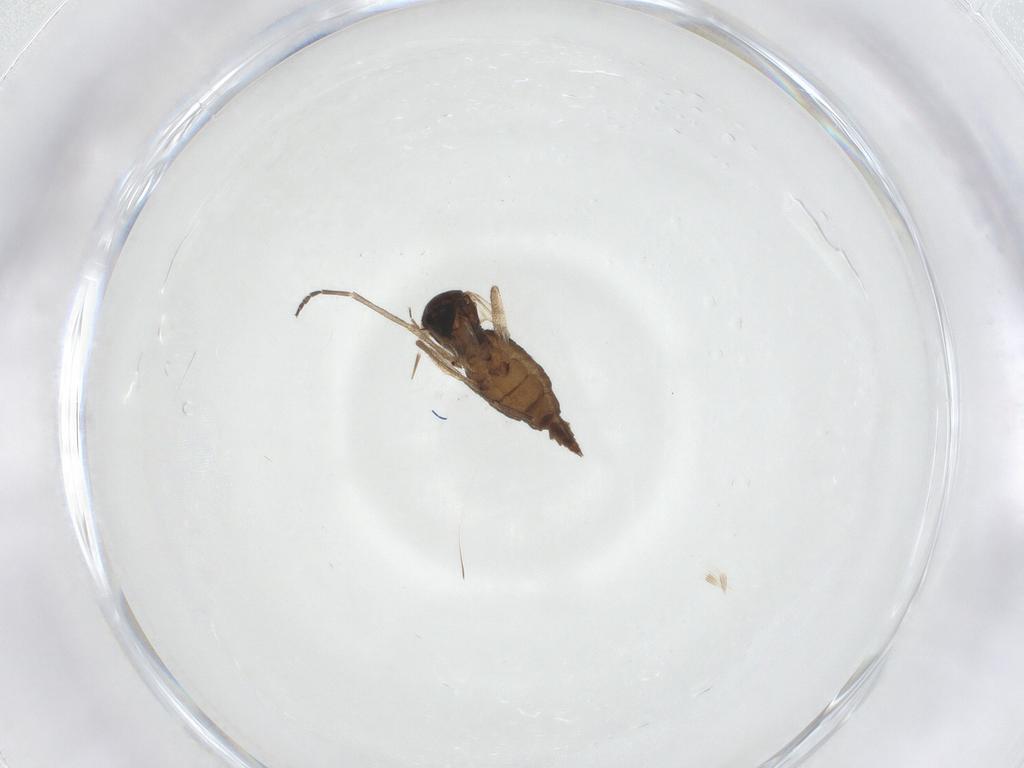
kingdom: Animalia
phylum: Arthropoda
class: Insecta
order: Diptera
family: Sciaridae
